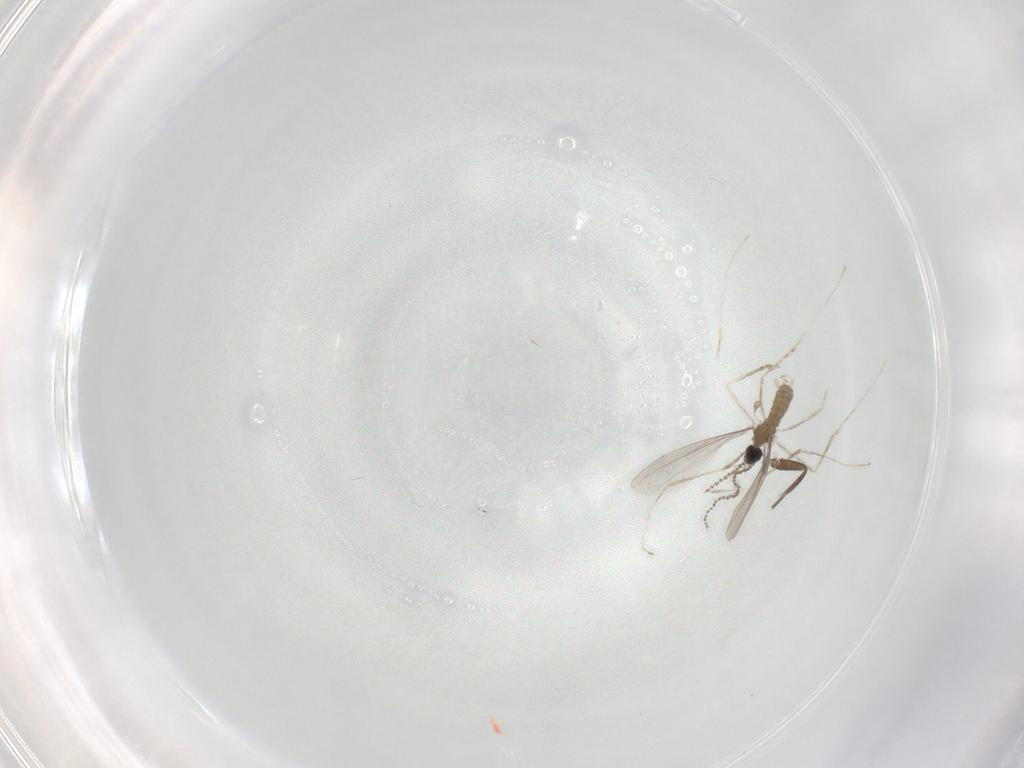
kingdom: Animalia
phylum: Arthropoda
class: Insecta
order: Diptera
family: Cecidomyiidae
